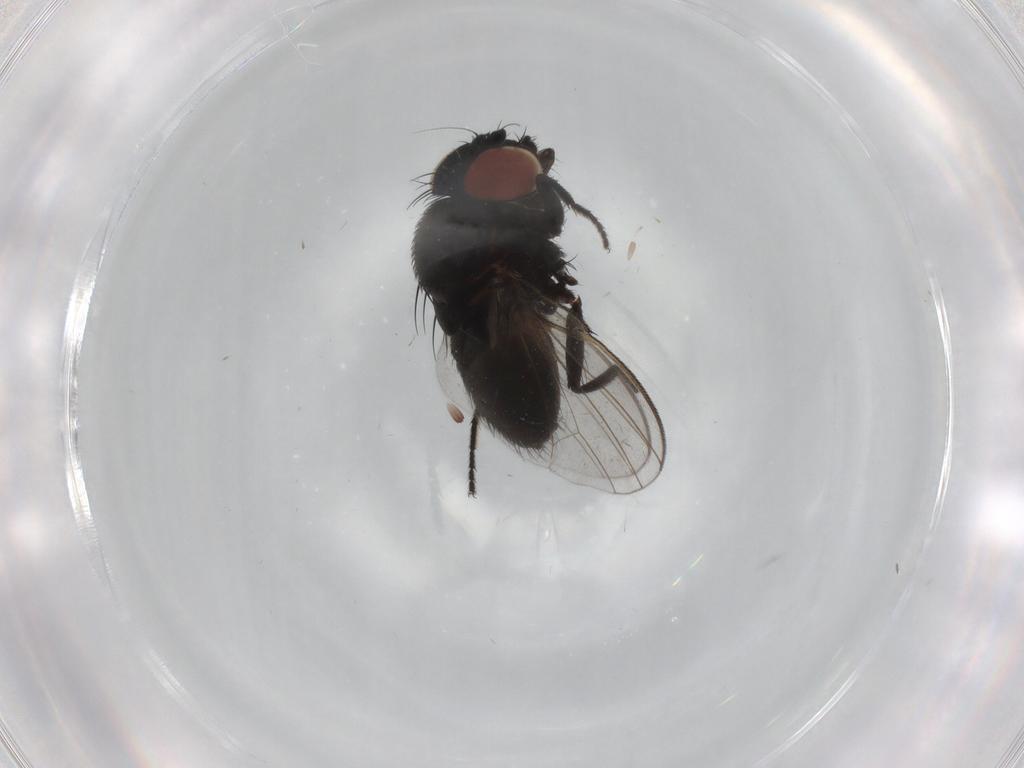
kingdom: Animalia
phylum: Arthropoda
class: Insecta
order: Diptera
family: Milichiidae
